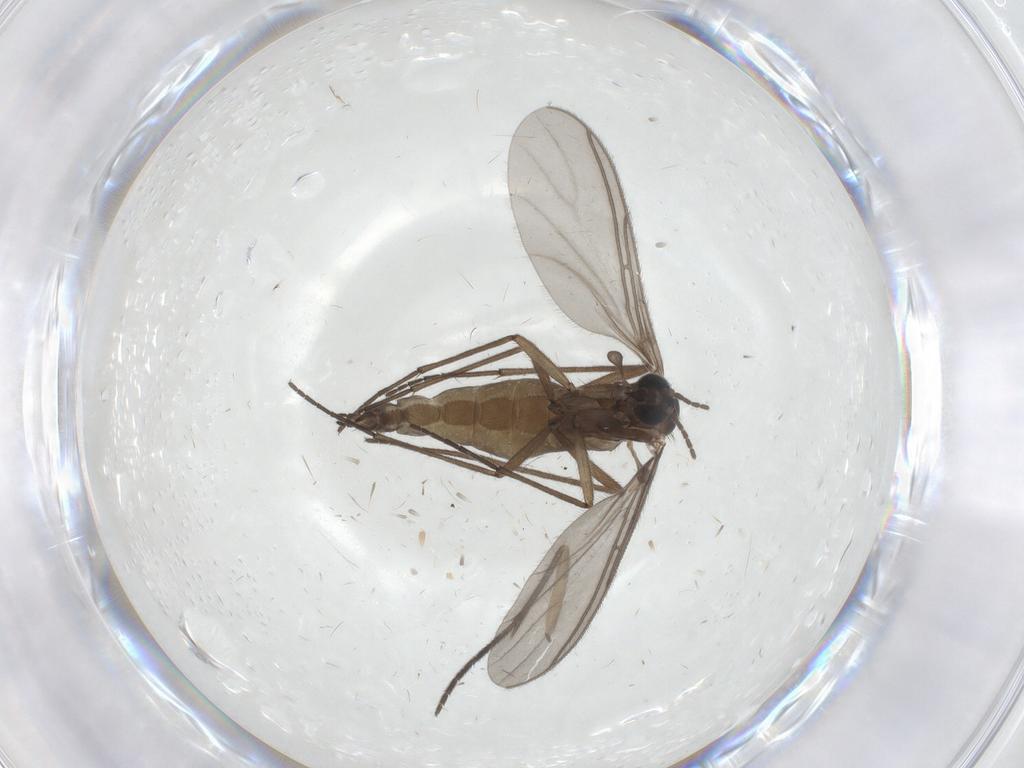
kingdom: Animalia
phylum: Arthropoda
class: Insecta
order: Diptera
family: Sciaridae
